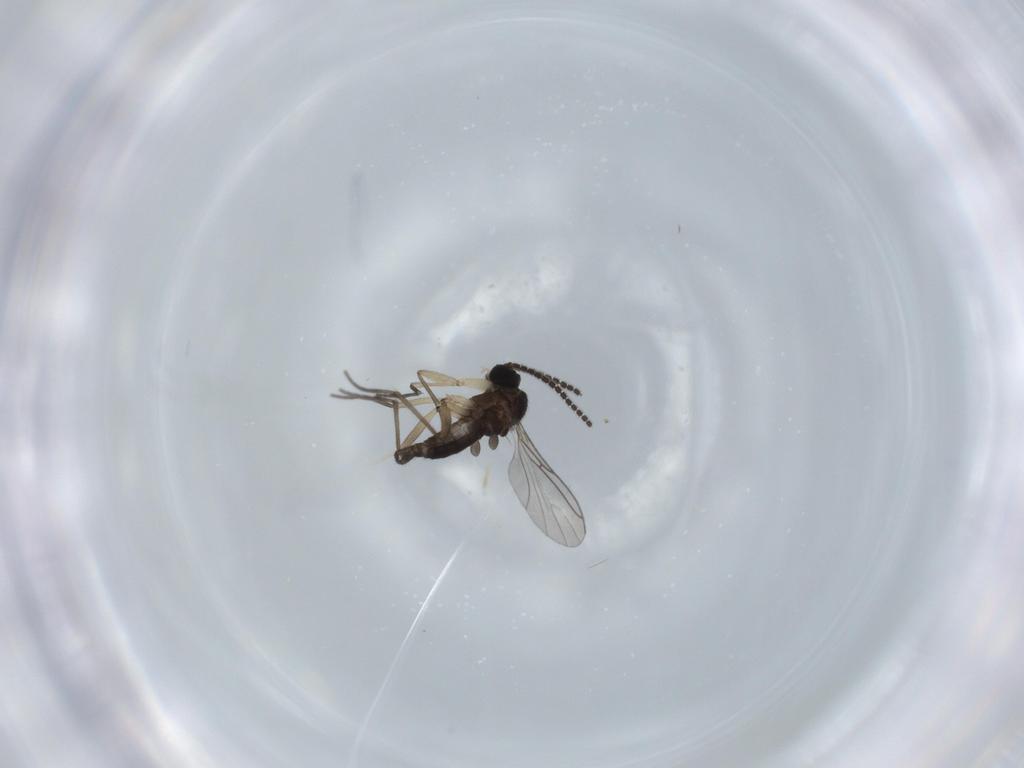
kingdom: Animalia
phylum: Arthropoda
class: Insecta
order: Diptera
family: Sciaridae
